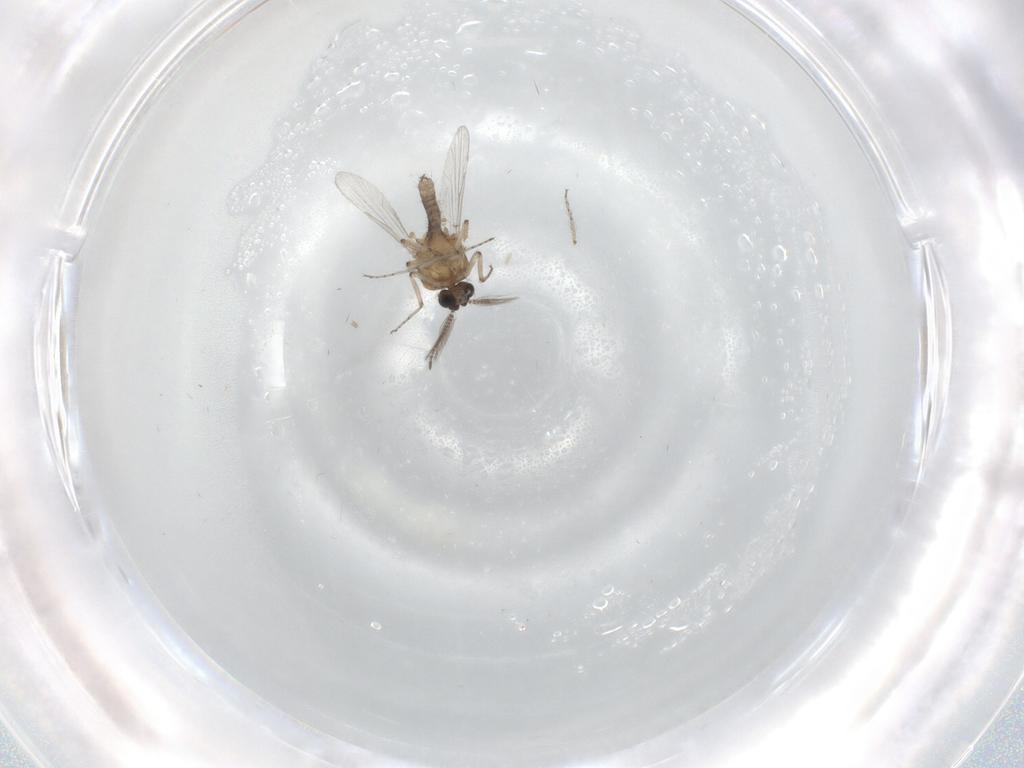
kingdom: Animalia
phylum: Arthropoda
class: Insecta
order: Diptera
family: Ceratopogonidae
